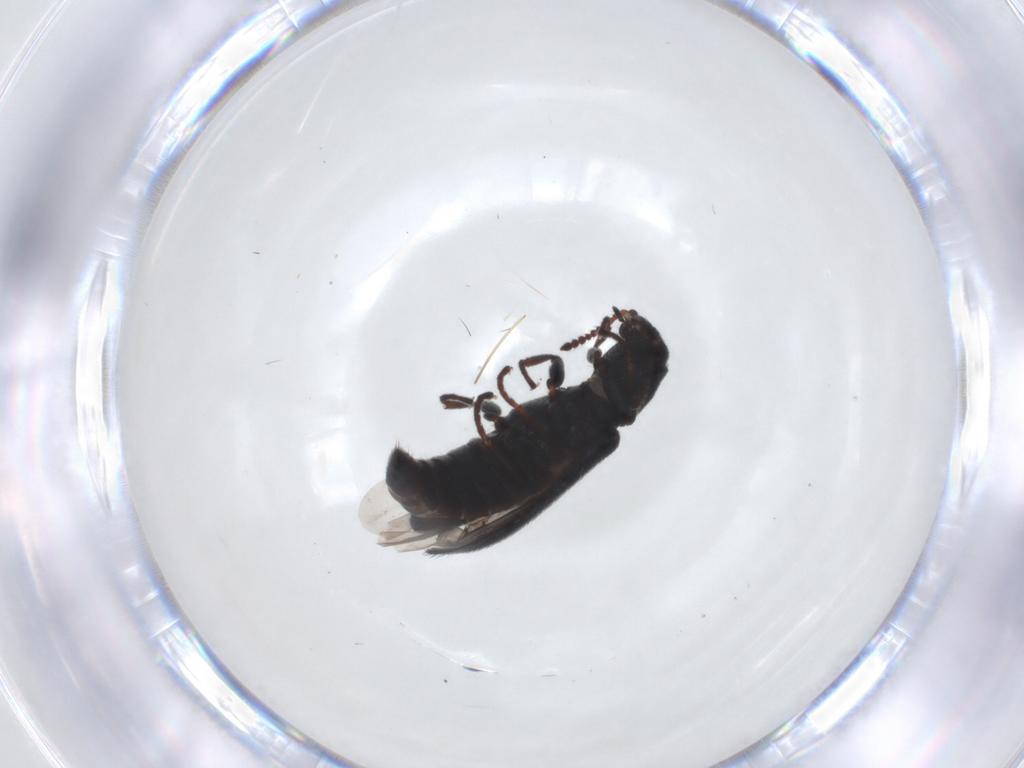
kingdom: Animalia
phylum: Arthropoda
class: Insecta
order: Coleoptera
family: Melyridae
